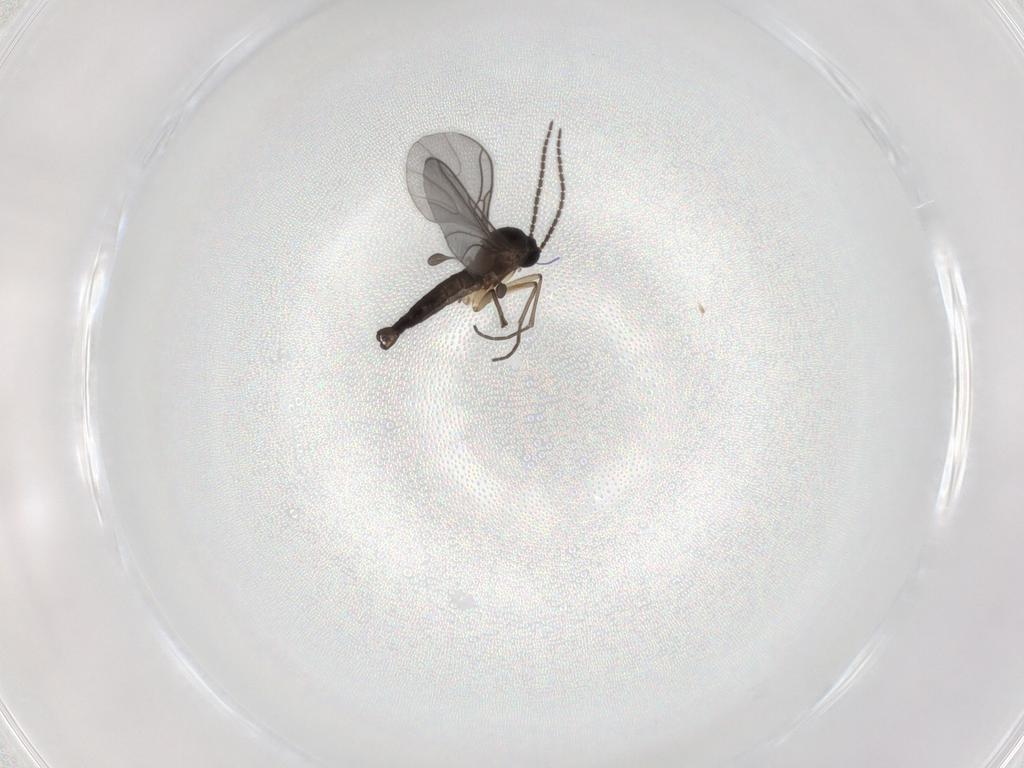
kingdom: Animalia
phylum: Arthropoda
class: Insecta
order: Diptera
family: Sciaridae
